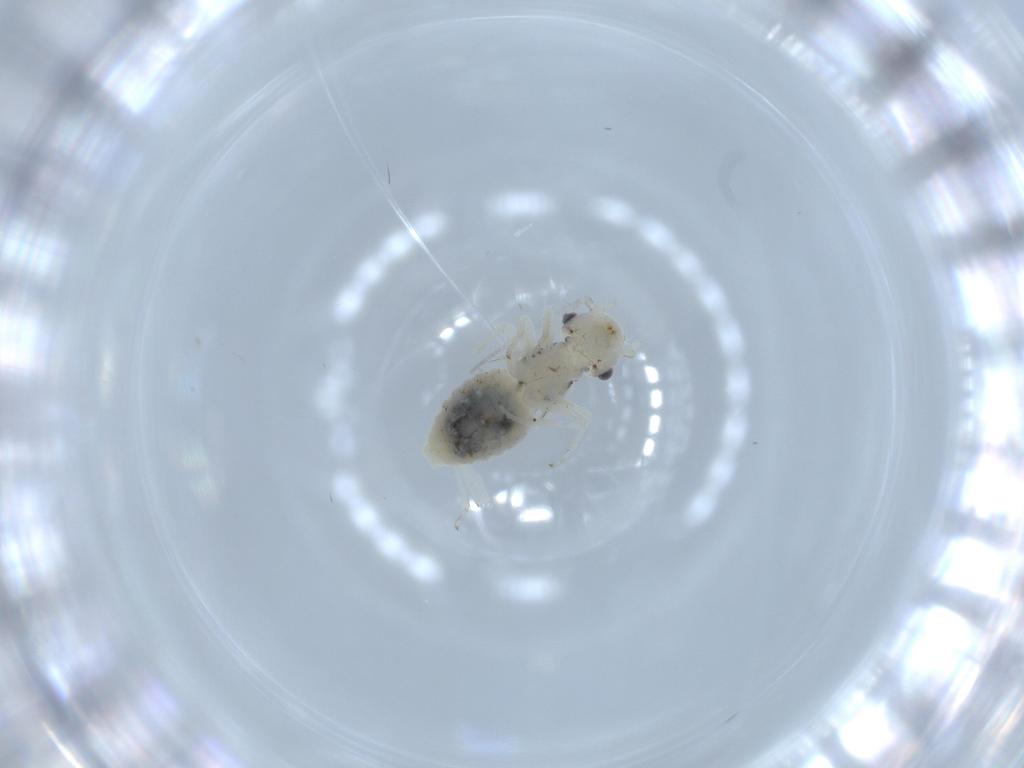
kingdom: Animalia
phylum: Arthropoda
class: Insecta
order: Psocodea
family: Caeciliusidae
